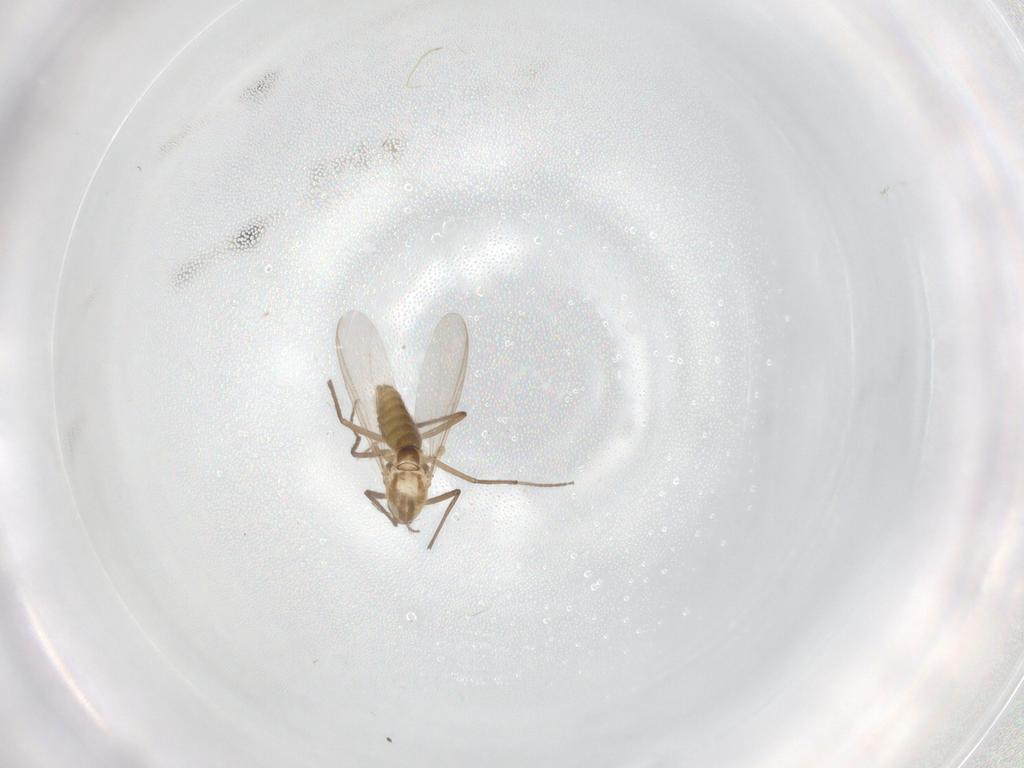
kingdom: Animalia
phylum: Arthropoda
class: Insecta
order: Diptera
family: Chironomidae
